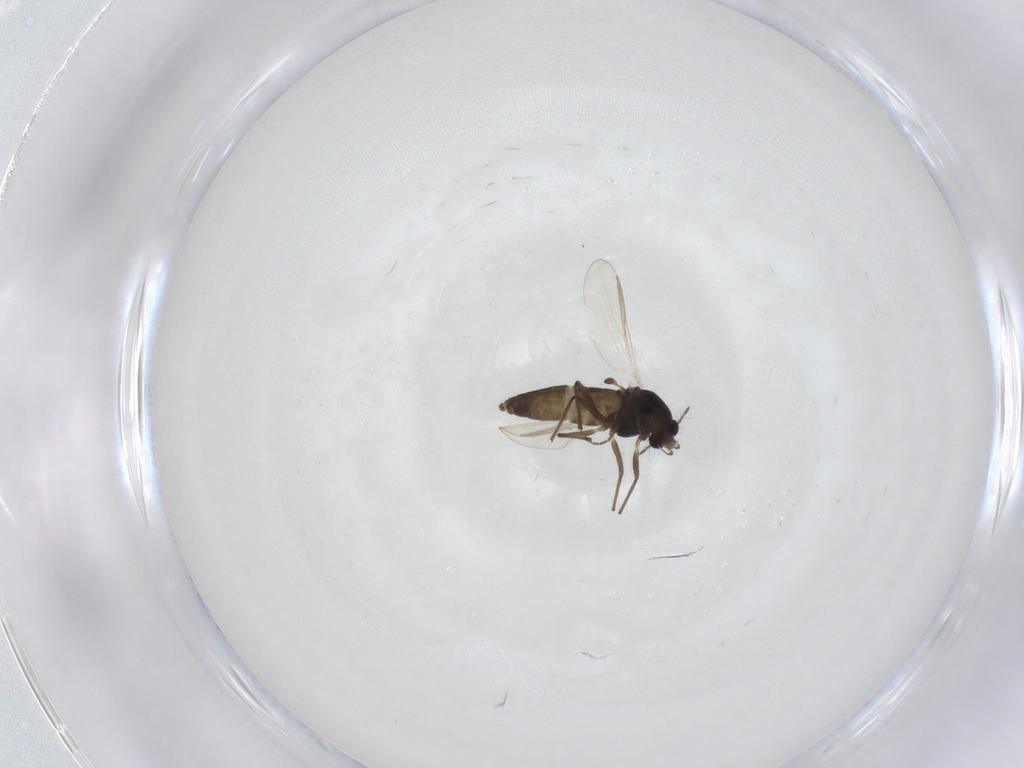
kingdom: Animalia
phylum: Arthropoda
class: Insecta
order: Diptera
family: Chironomidae
